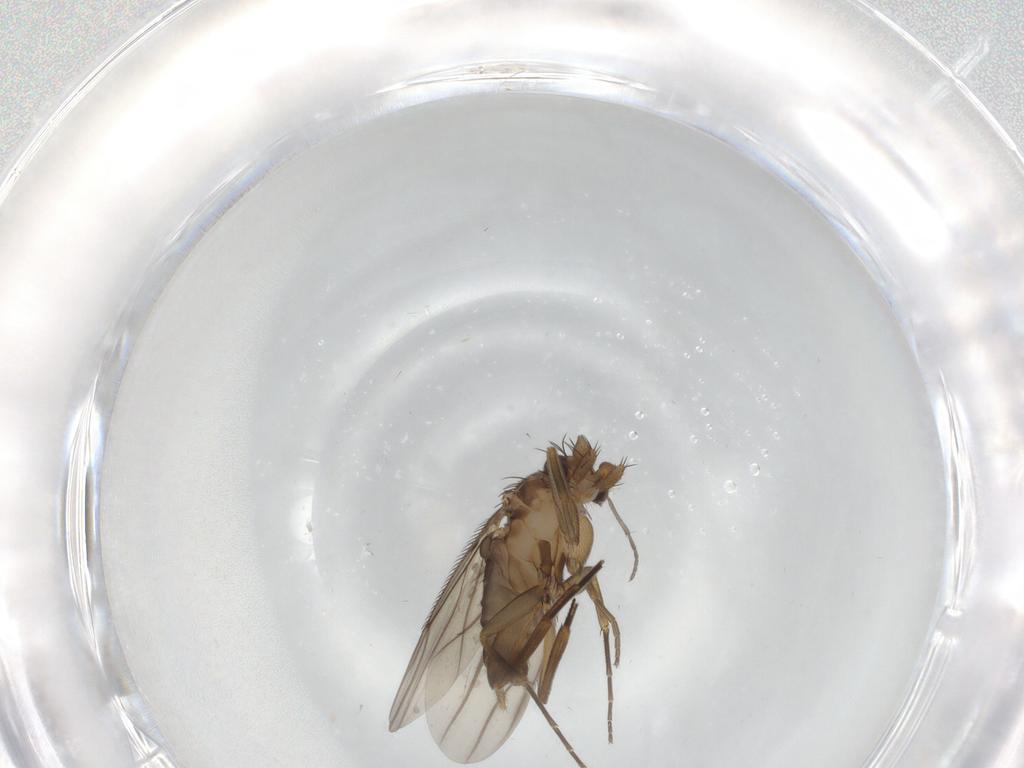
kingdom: Animalia
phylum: Arthropoda
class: Insecta
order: Diptera
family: Phoridae
